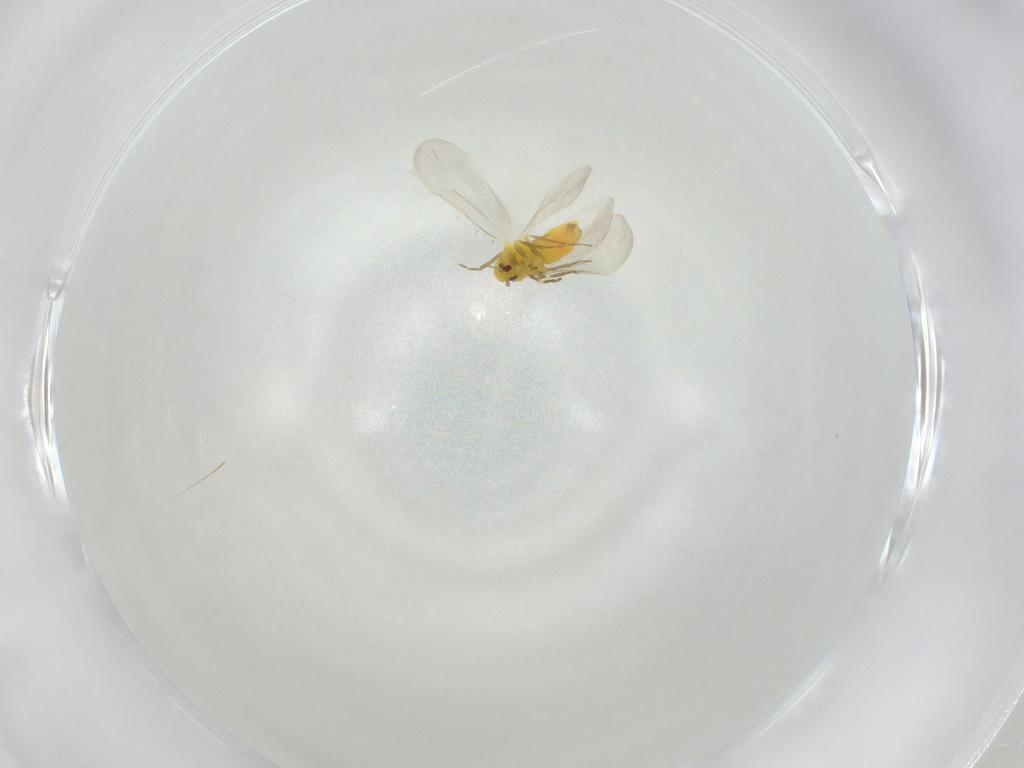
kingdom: Animalia
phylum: Arthropoda
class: Insecta
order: Hemiptera
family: Aleyrodidae
